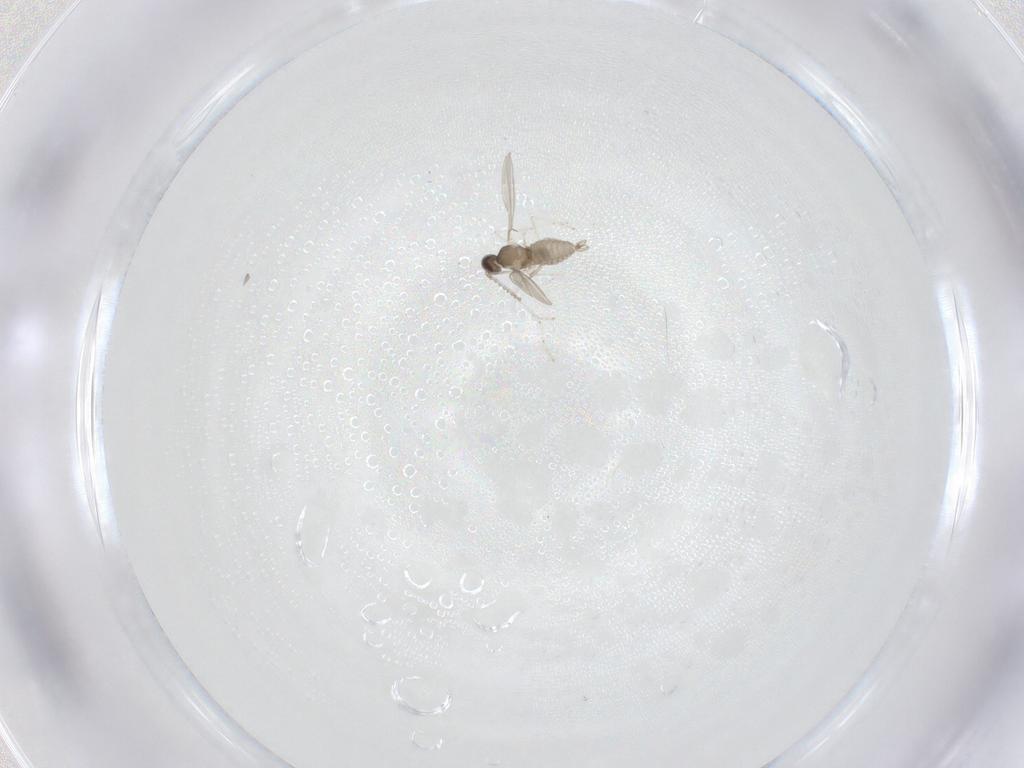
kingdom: Animalia
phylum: Arthropoda
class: Insecta
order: Diptera
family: Cecidomyiidae
